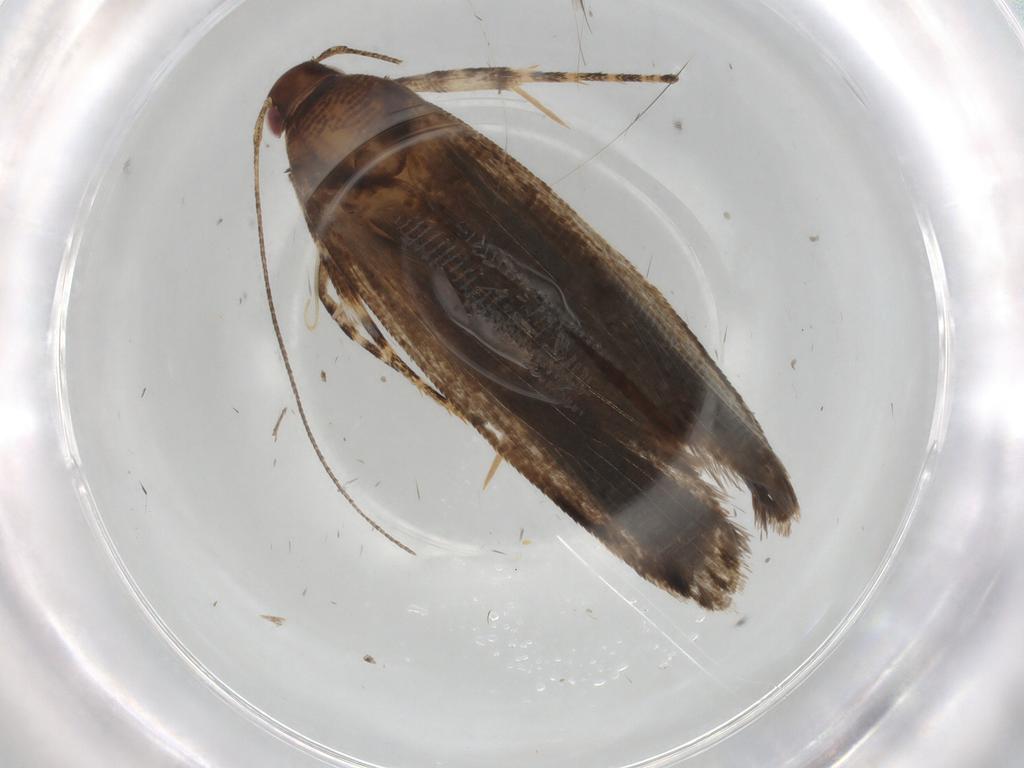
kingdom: Animalia
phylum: Arthropoda
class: Insecta
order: Lepidoptera
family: Gelechiidae
